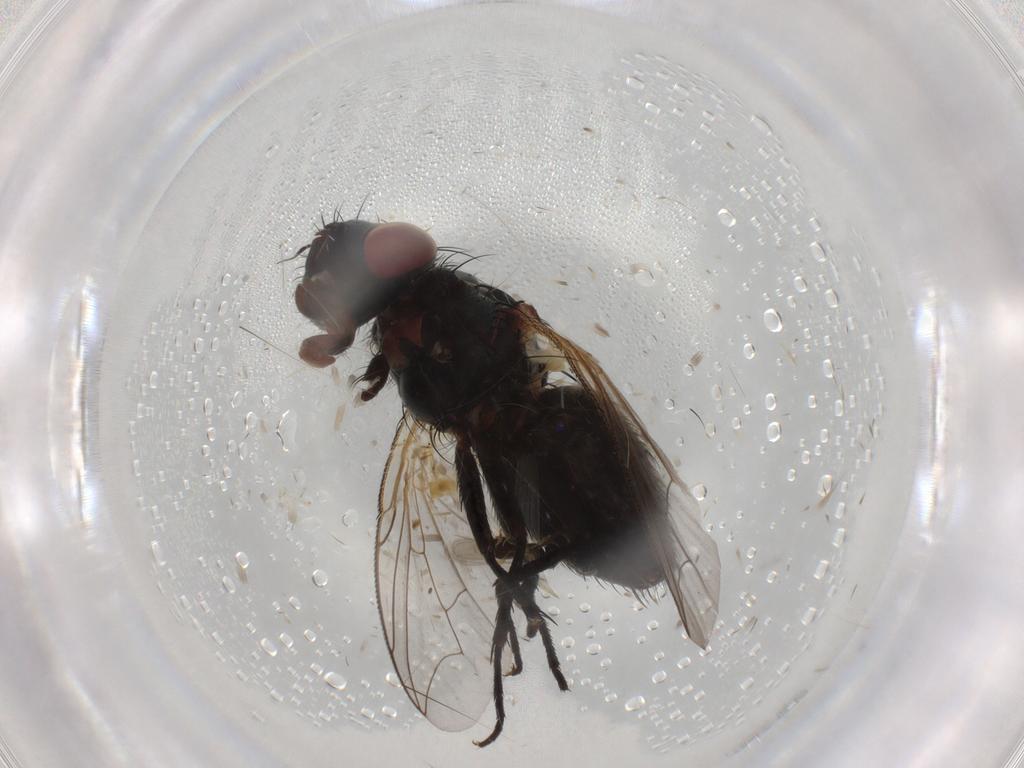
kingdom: Animalia
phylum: Arthropoda
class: Insecta
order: Diptera
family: Sarcophagidae
